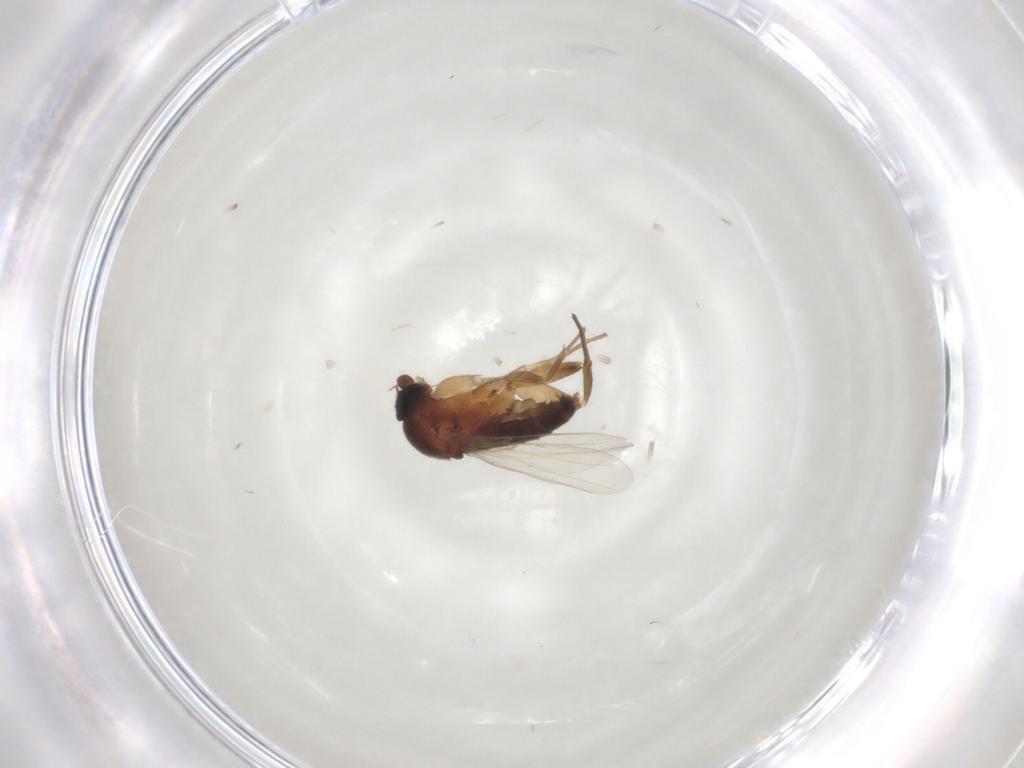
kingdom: Animalia
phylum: Arthropoda
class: Insecta
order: Diptera
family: Phoridae
